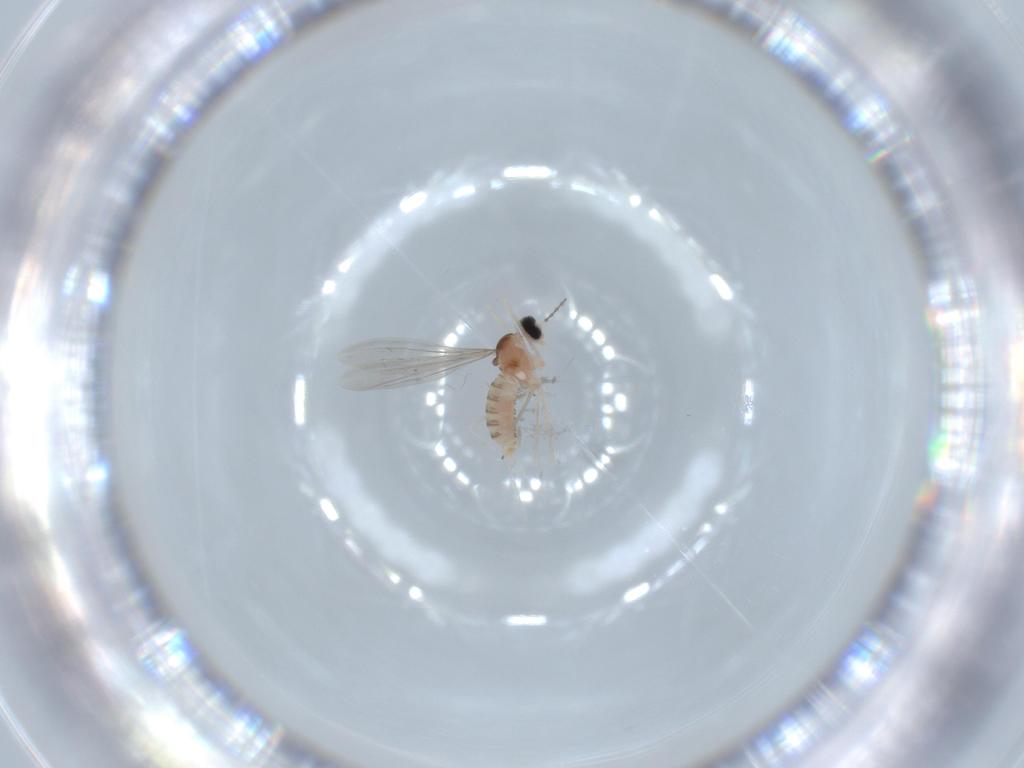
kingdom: Animalia
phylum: Arthropoda
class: Insecta
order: Diptera
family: Cecidomyiidae
